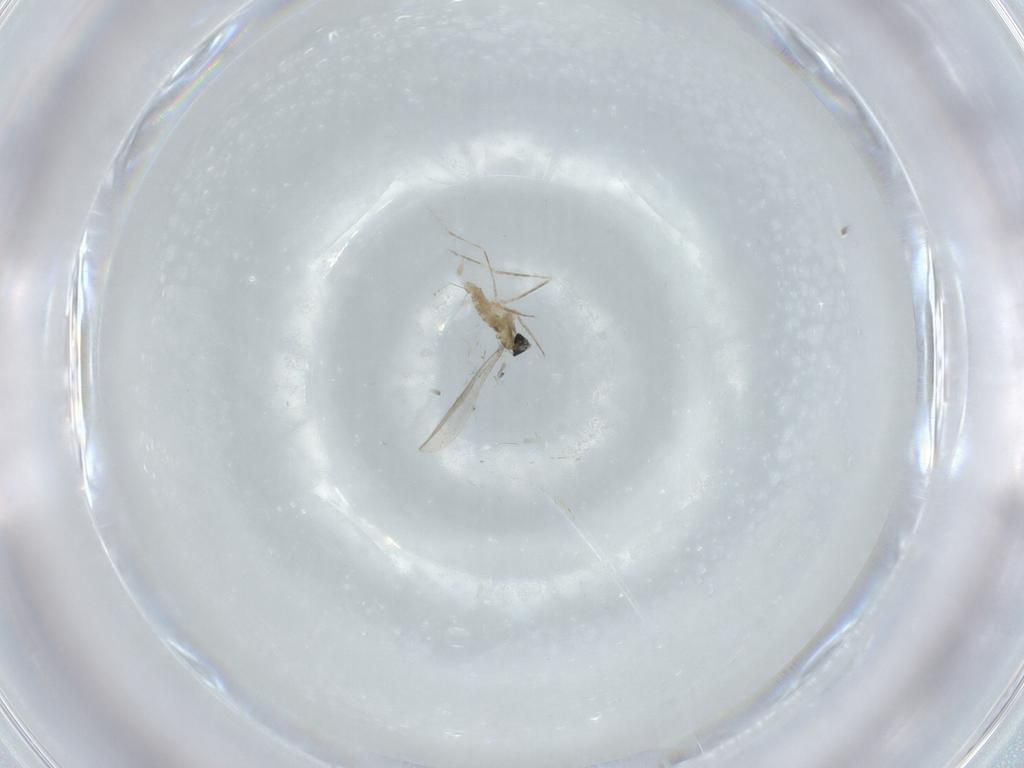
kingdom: Animalia
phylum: Arthropoda
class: Insecta
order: Diptera
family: Cecidomyiidae
